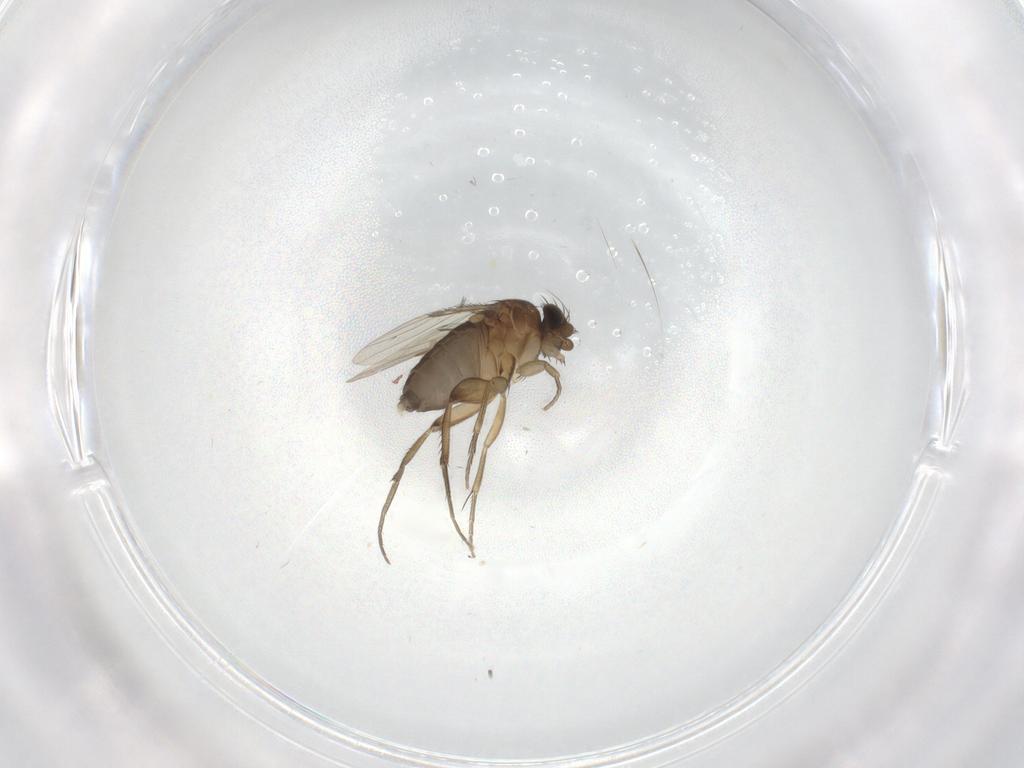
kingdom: Animalia
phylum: Arthropoda
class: Insecta
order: Diptera
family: Phoridae
